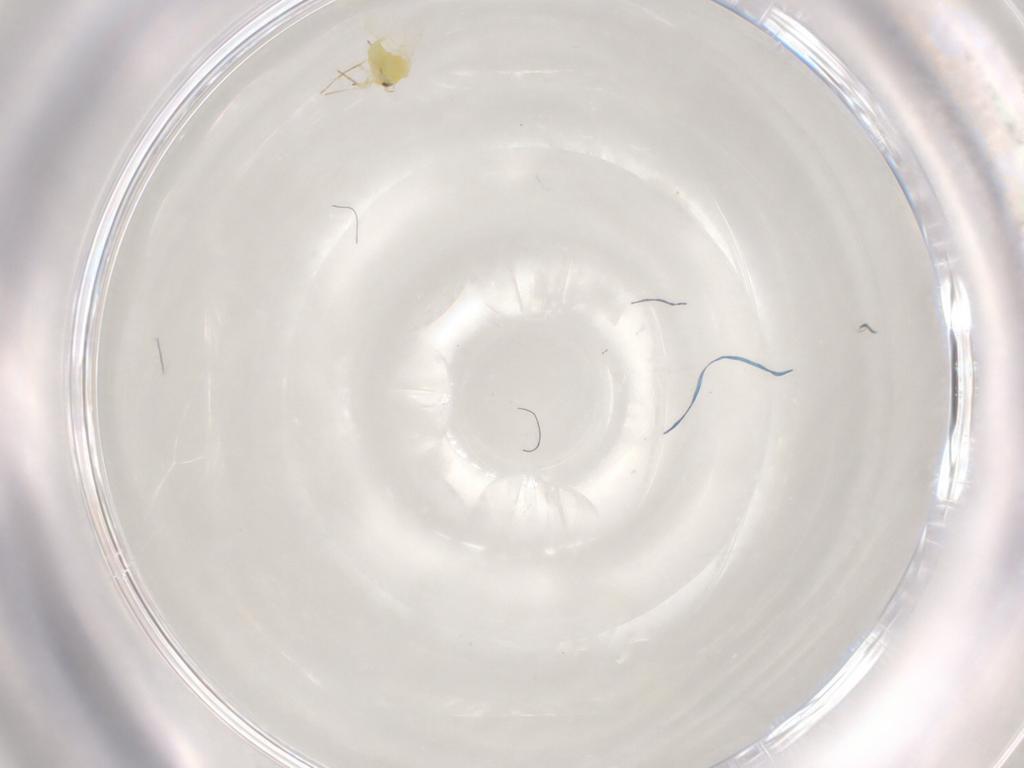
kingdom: Animalia
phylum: Arthropoda
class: Insecta
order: Hemiptera
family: Aleyrodidae
